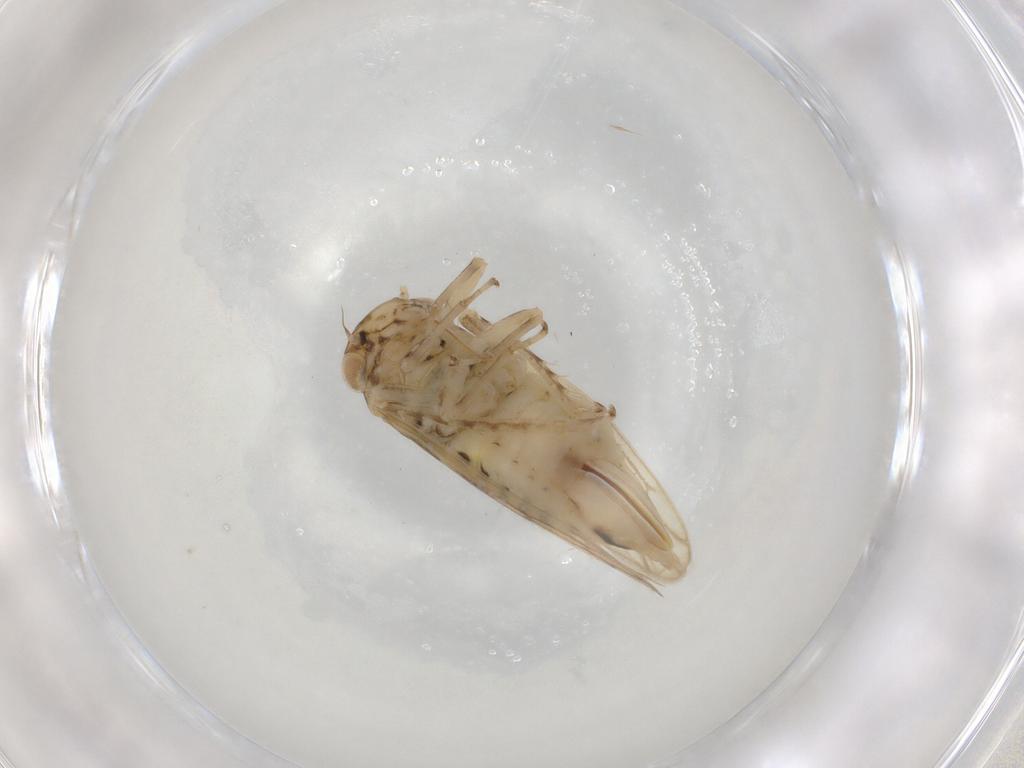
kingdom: Animalia
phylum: Arthropoda
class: Insecta
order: Hemiptera
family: Cicadellidae
